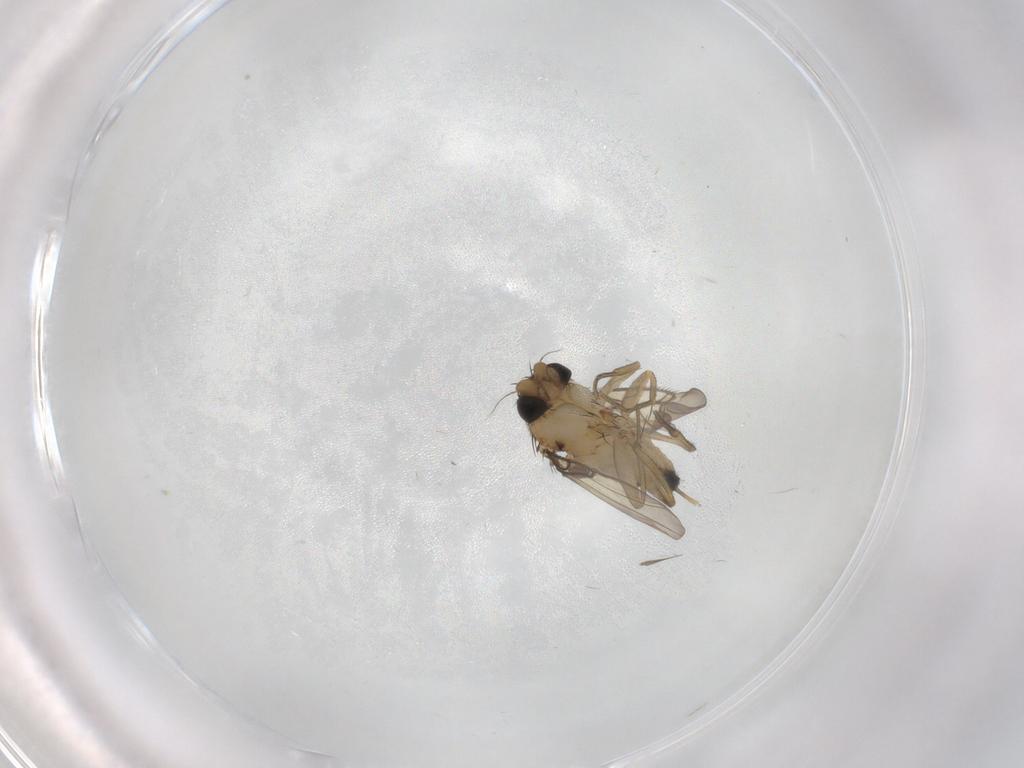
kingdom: Animalia
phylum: Arthropoda
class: Insecta
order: Diptera
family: Phoridae
